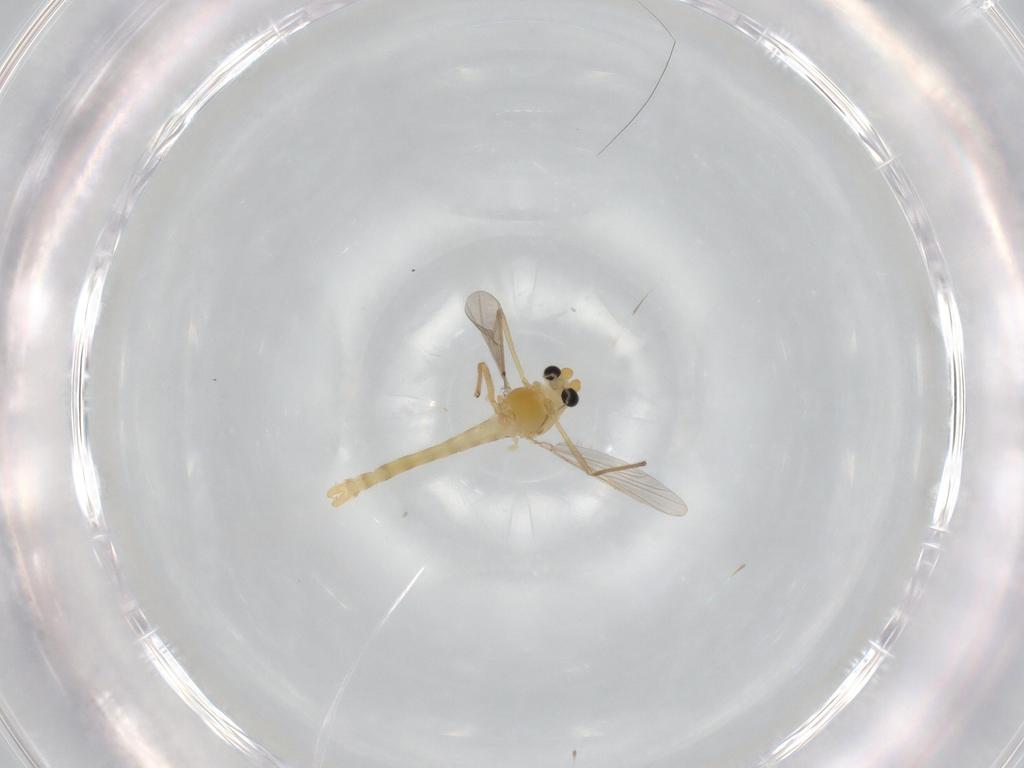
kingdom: Animalia
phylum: Arthropoda
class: Insecta
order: Diptera
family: Chironomidae
